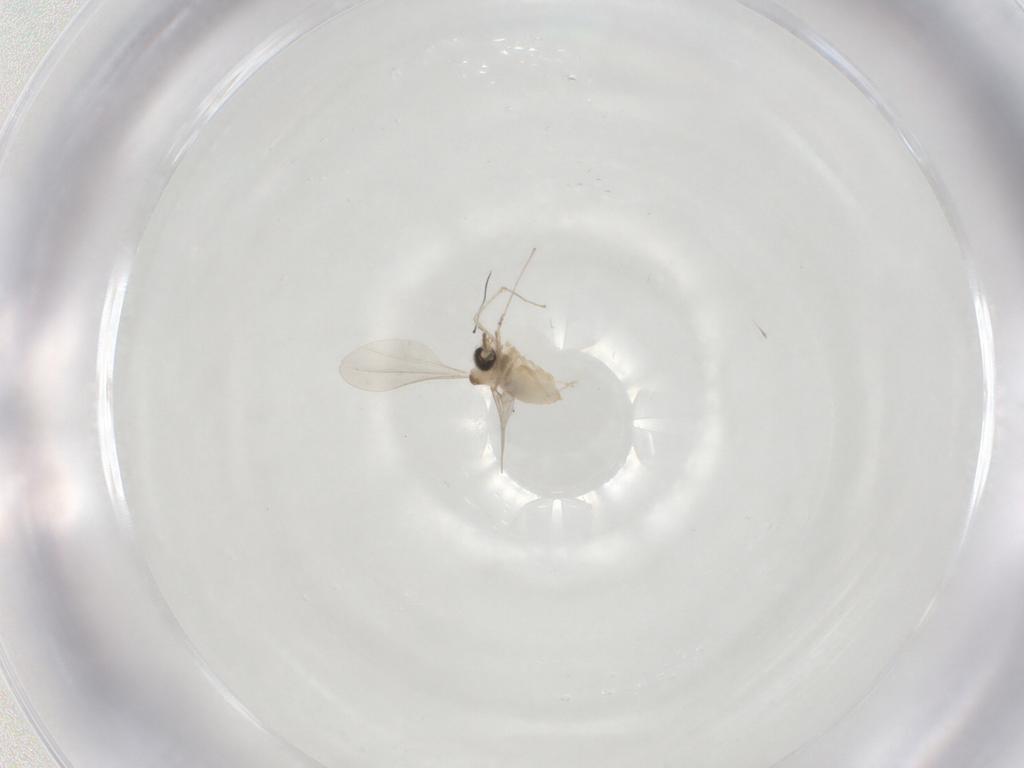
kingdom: Animalia
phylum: Arthropoda
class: Insecta
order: Diptera
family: Cecidomyiidae
